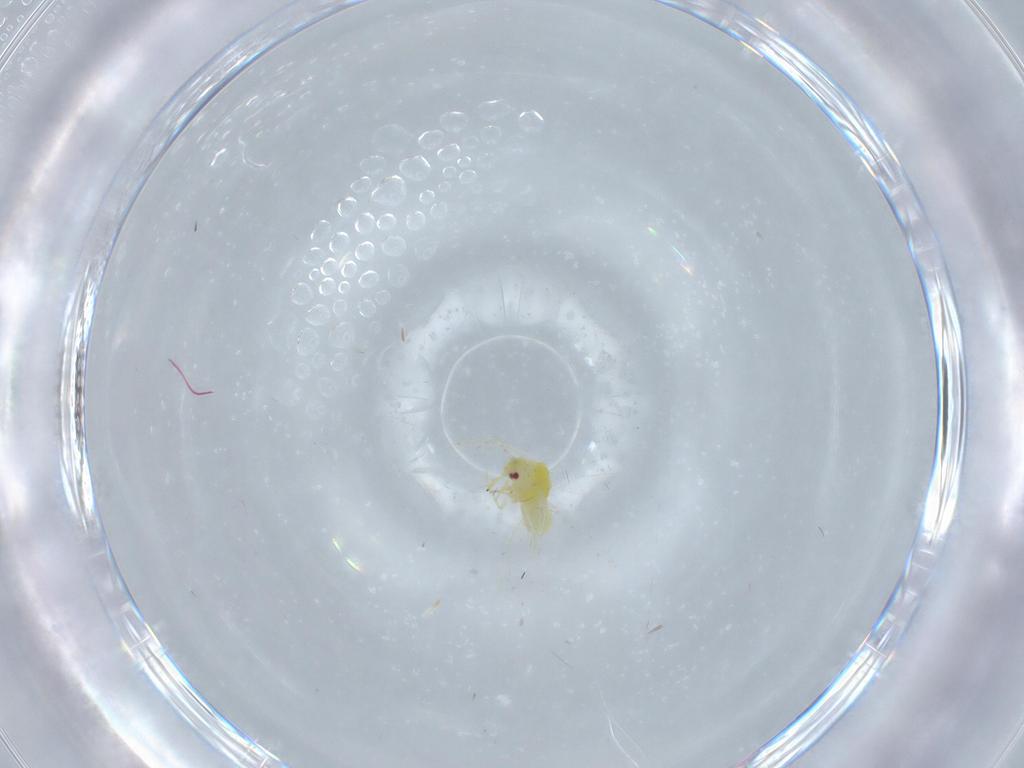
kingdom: Animalia
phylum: Arthropoda
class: Insecta
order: Hemiptera
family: Aleyrodidae
